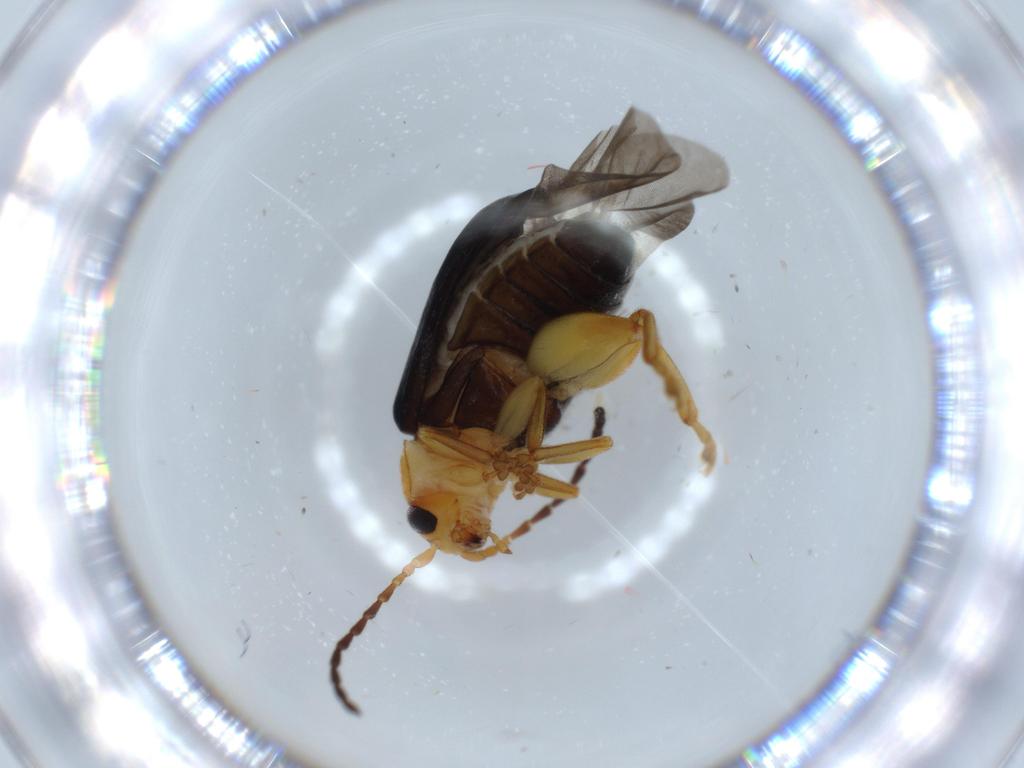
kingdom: Animalia
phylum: Arthropoda
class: Insecta
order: Coleoptera
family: Chrysomelidae
